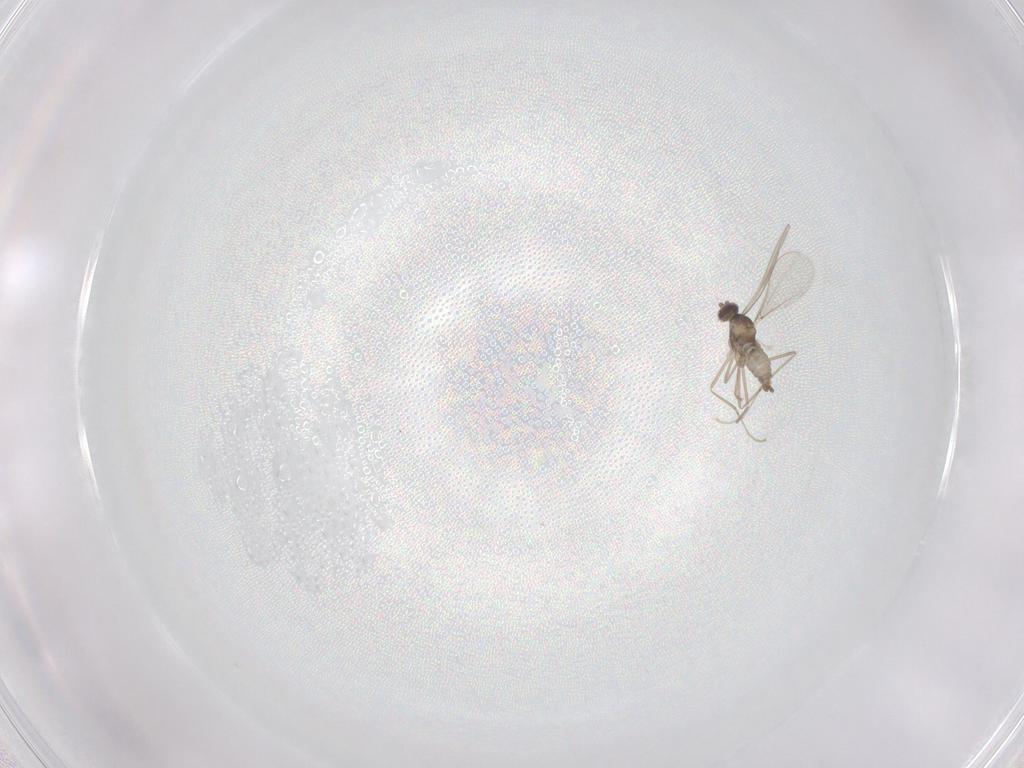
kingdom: Animalia
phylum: Arthropoda
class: Insecta
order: Diptera
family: Cecidomyiidae
